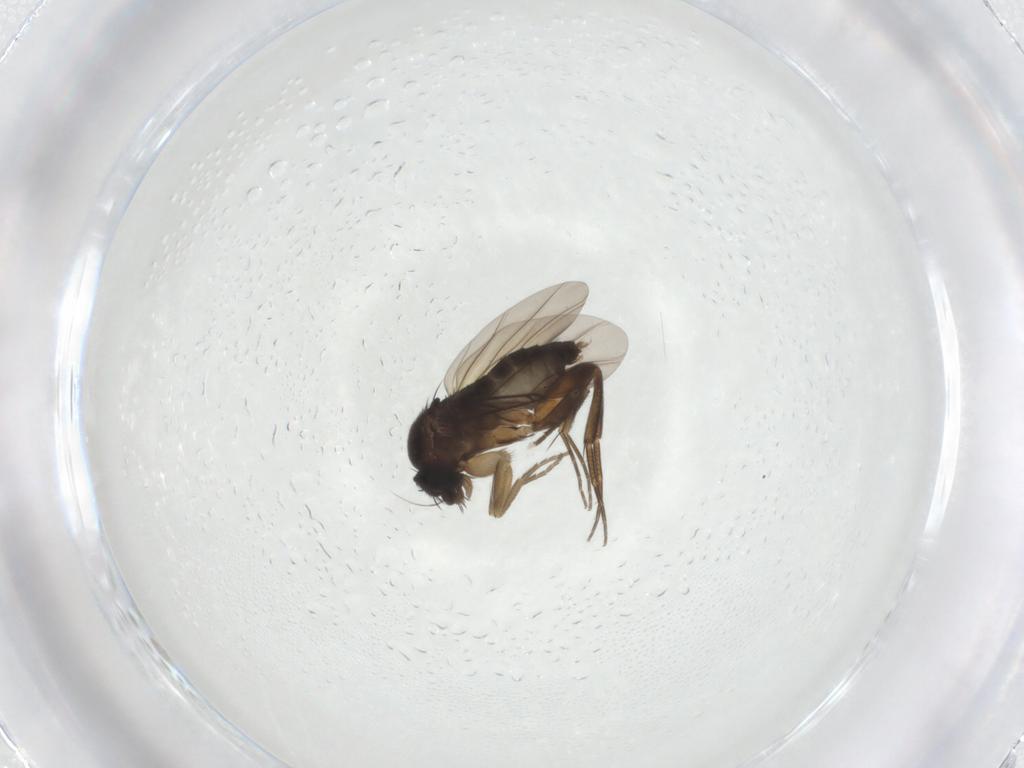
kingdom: Animalia
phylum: Arthropoda
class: Insecta
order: Diptera
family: Phoridae
